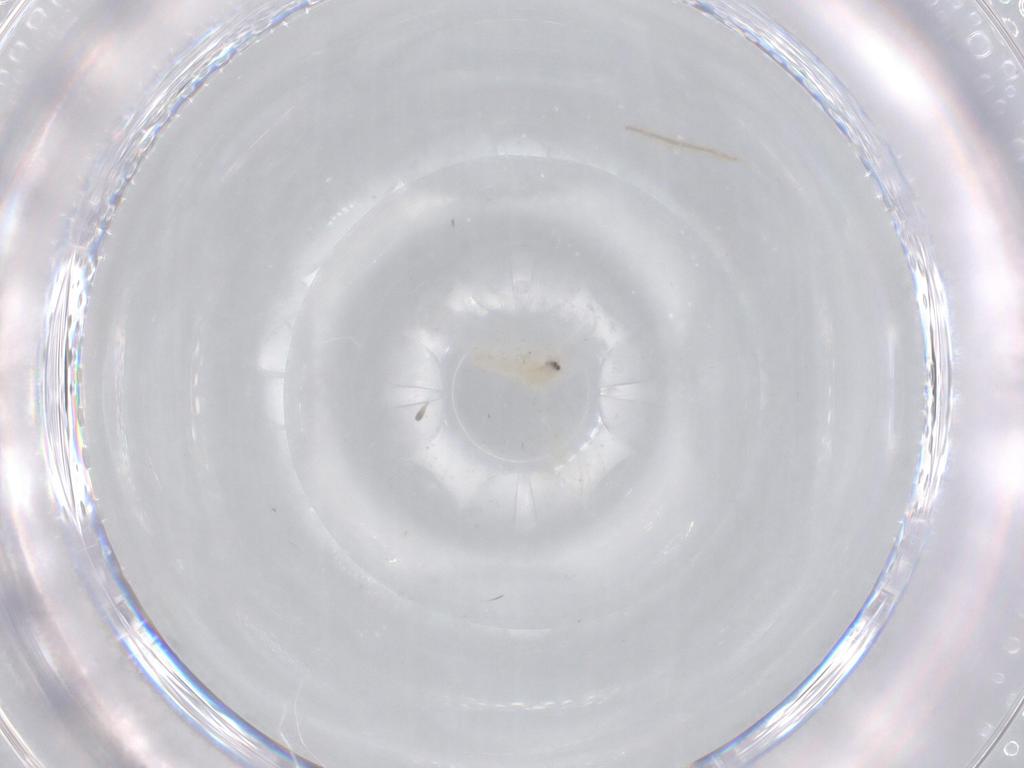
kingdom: Animalia
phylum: Arthropoda
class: Insecta
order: Hemiptera
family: Aleyrodidae
